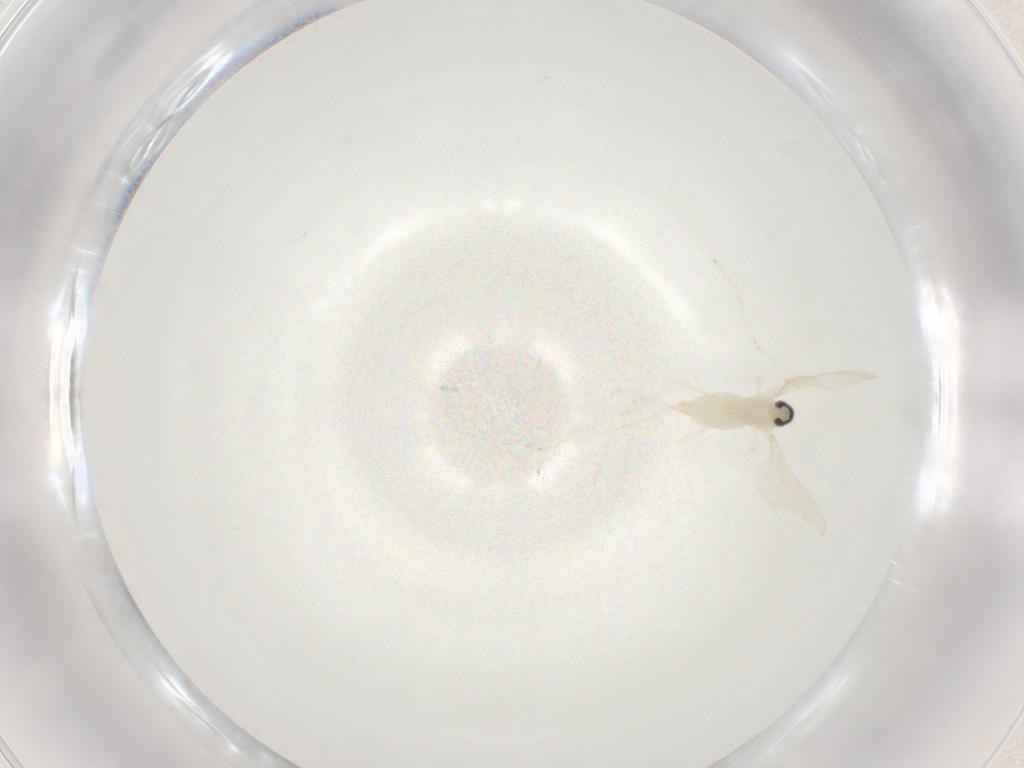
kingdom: Animalia
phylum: Arthropoda
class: Insecta
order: Diptera
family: Cecidomyiidae
